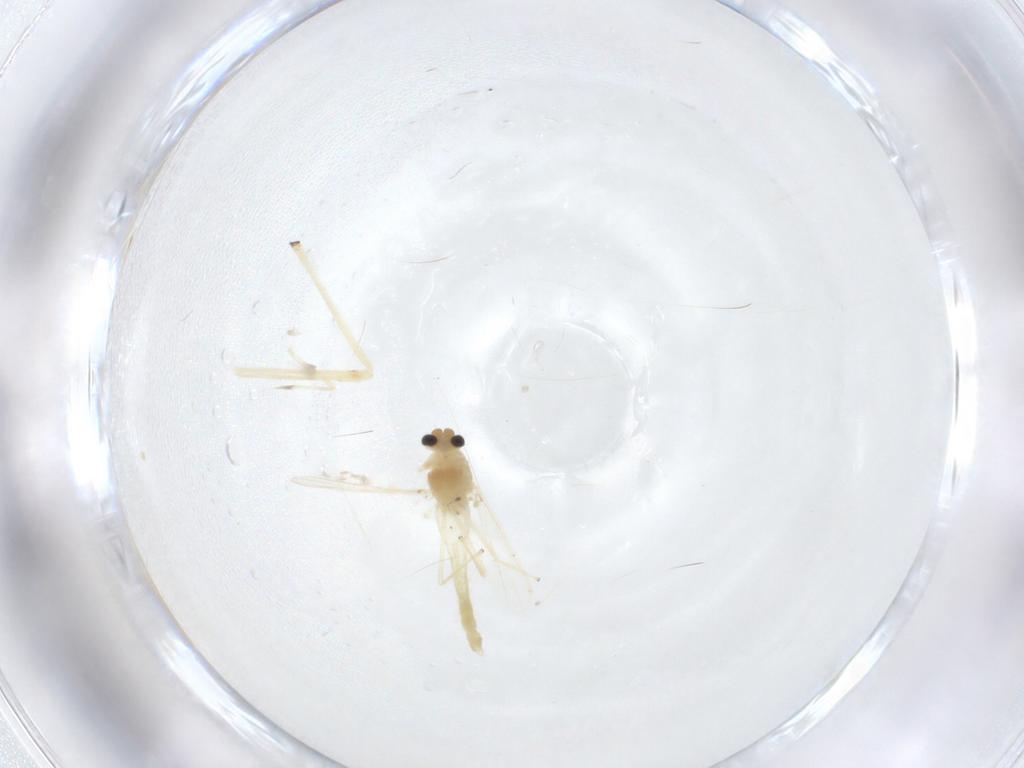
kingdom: Animalia
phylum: Arthropoda
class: Insecta
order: Diptera
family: Chironomidae
